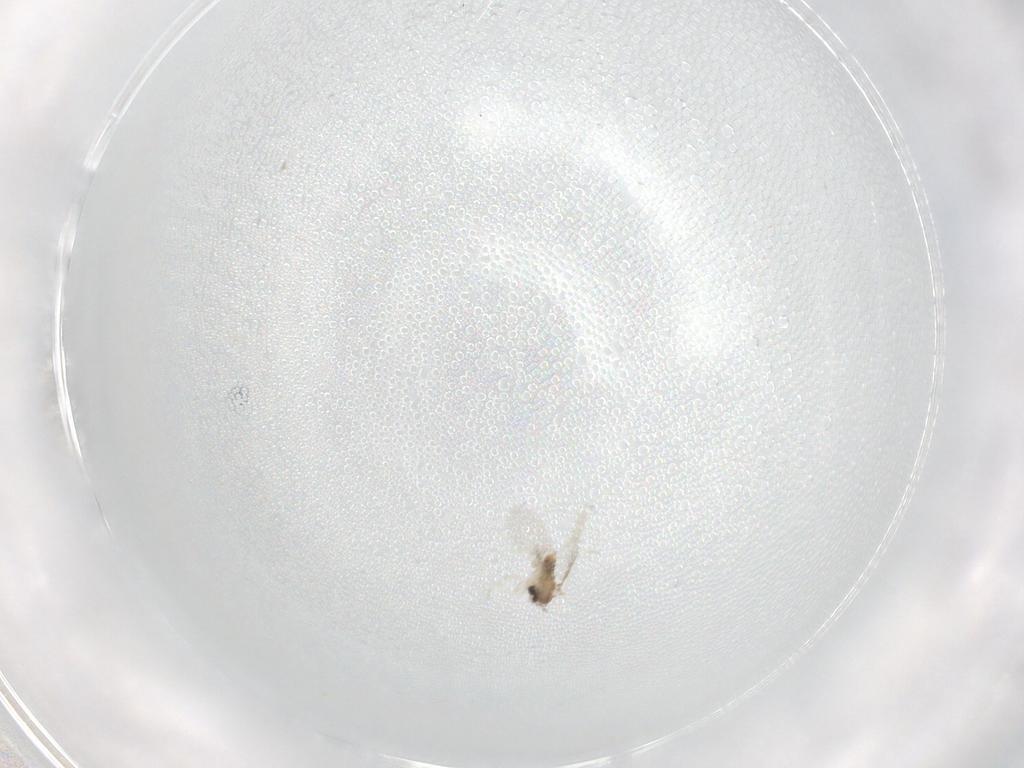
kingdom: Animalia
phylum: Arthropoda
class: Insecta
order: Diptera
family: Cecidomyiidae
